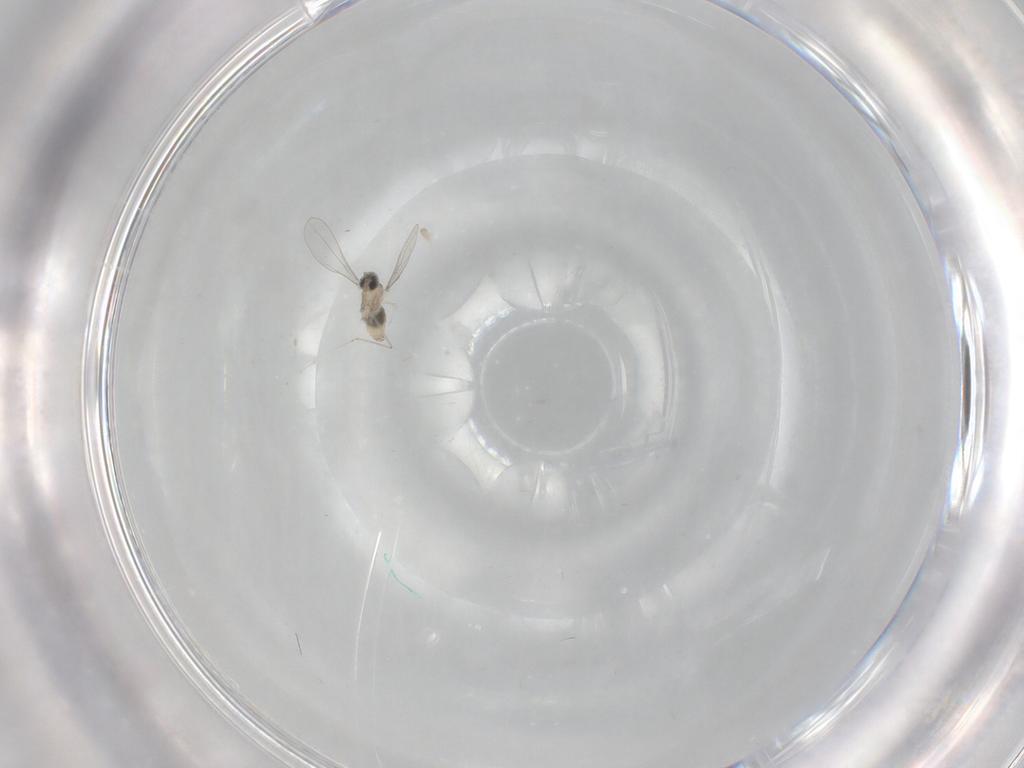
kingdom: Animalia
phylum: Arthropoda
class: Insecta
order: Diptera
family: Cecidomyiidae
